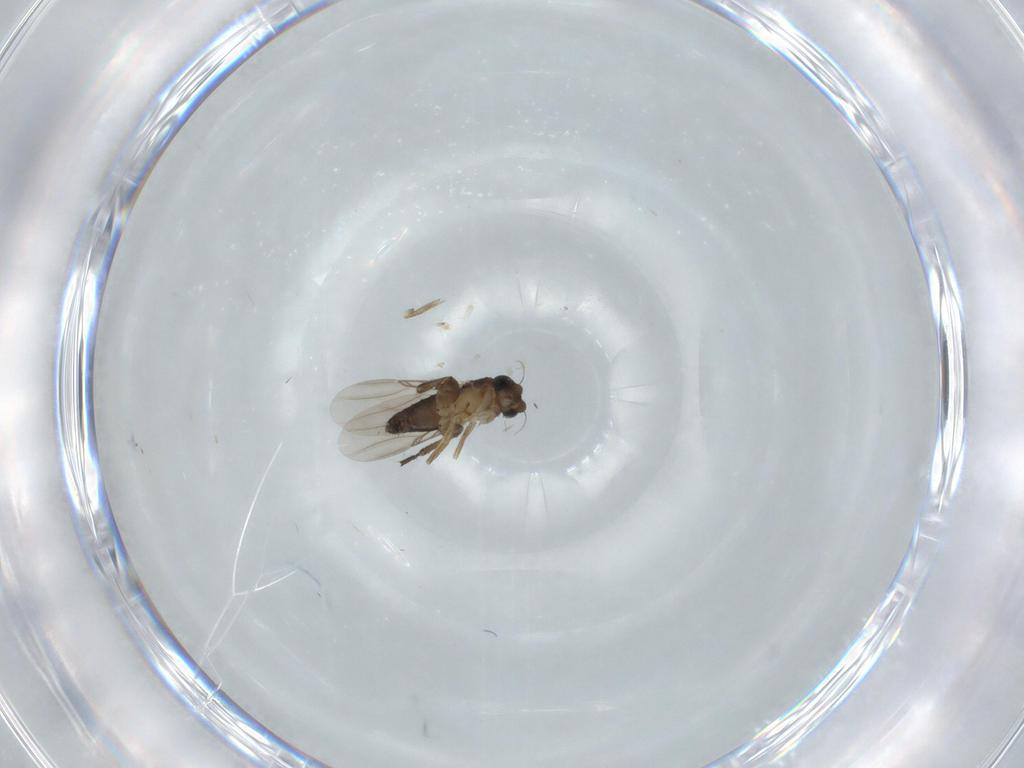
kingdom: Animalia
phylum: Arthropoda
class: Insecta
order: Diptera
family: Phoridae
